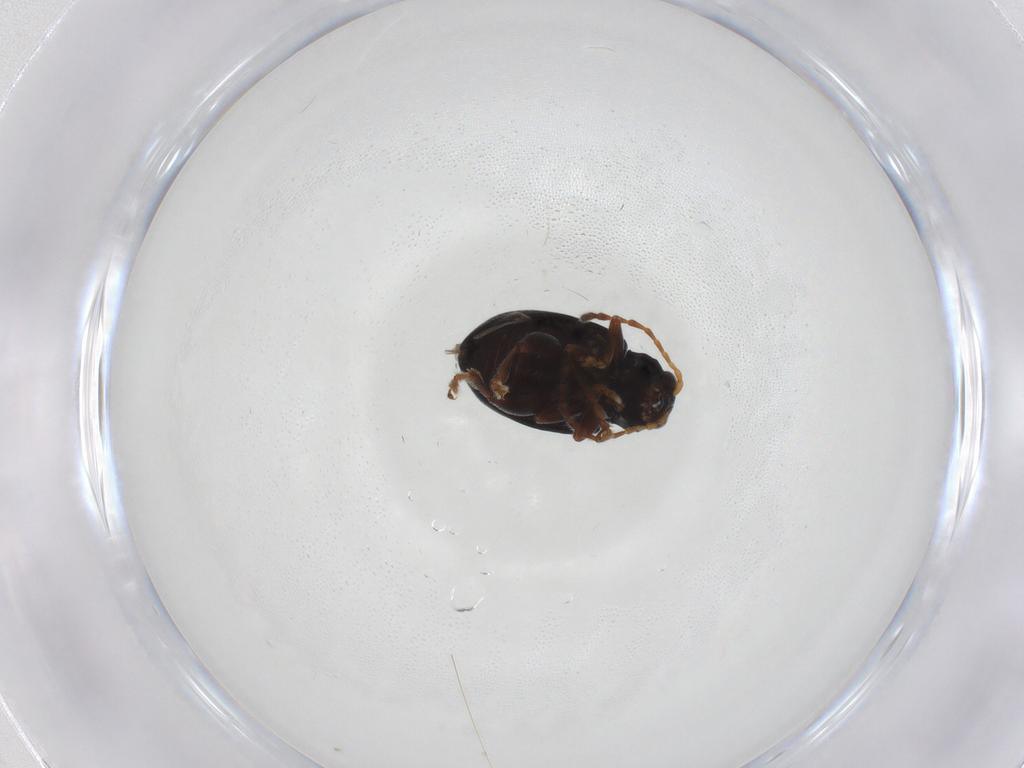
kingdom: Animalia
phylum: Arthropoda
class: Insecta
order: Coleoptera
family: Chrysomelidae
